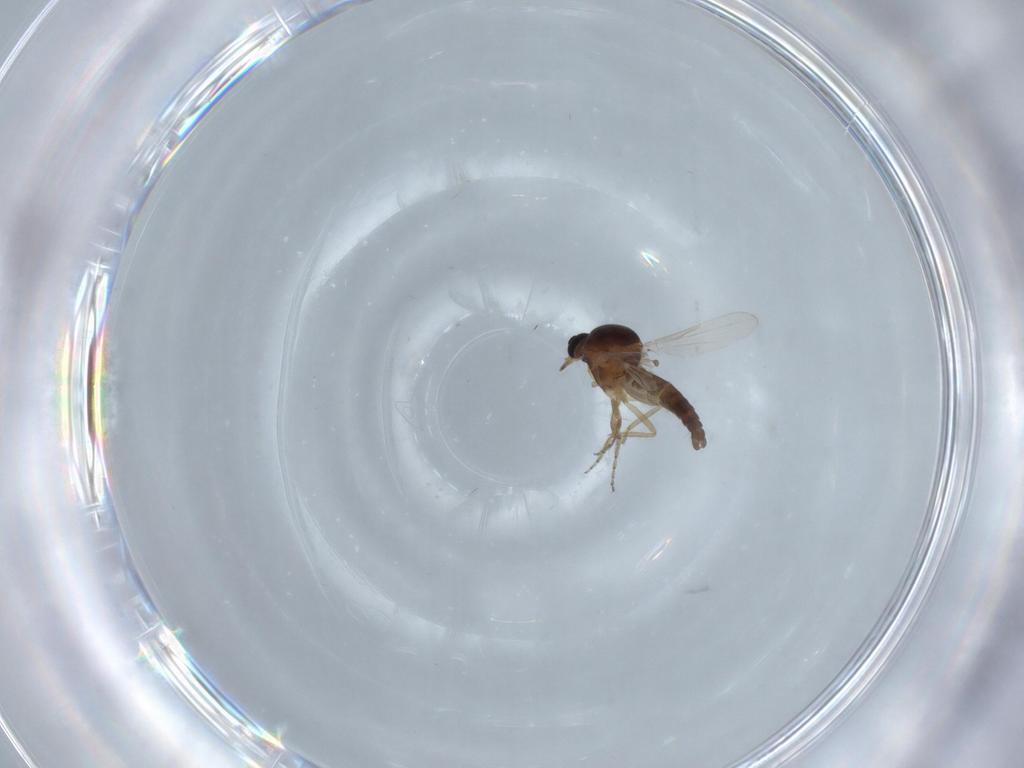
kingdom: Animalia
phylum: Arthropoda
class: Insecta
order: Diptera
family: Ceratopogonidae
